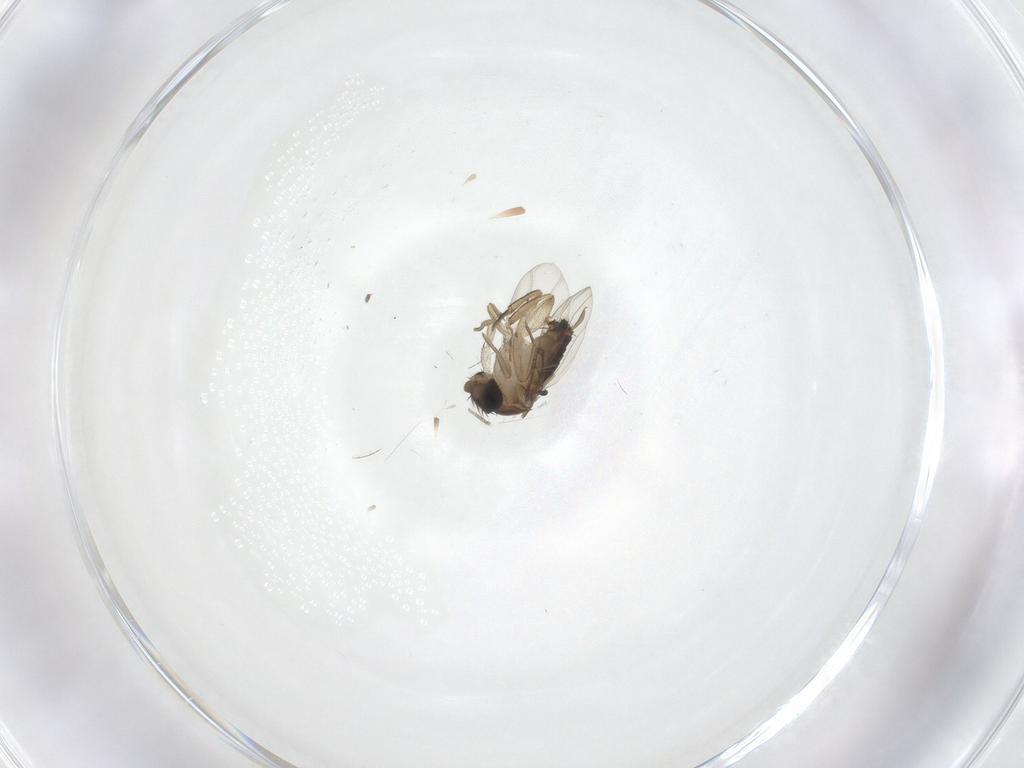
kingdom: Animalia
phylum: Arthropoda
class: Insecta
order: Diptera
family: Cecidomyiidae
